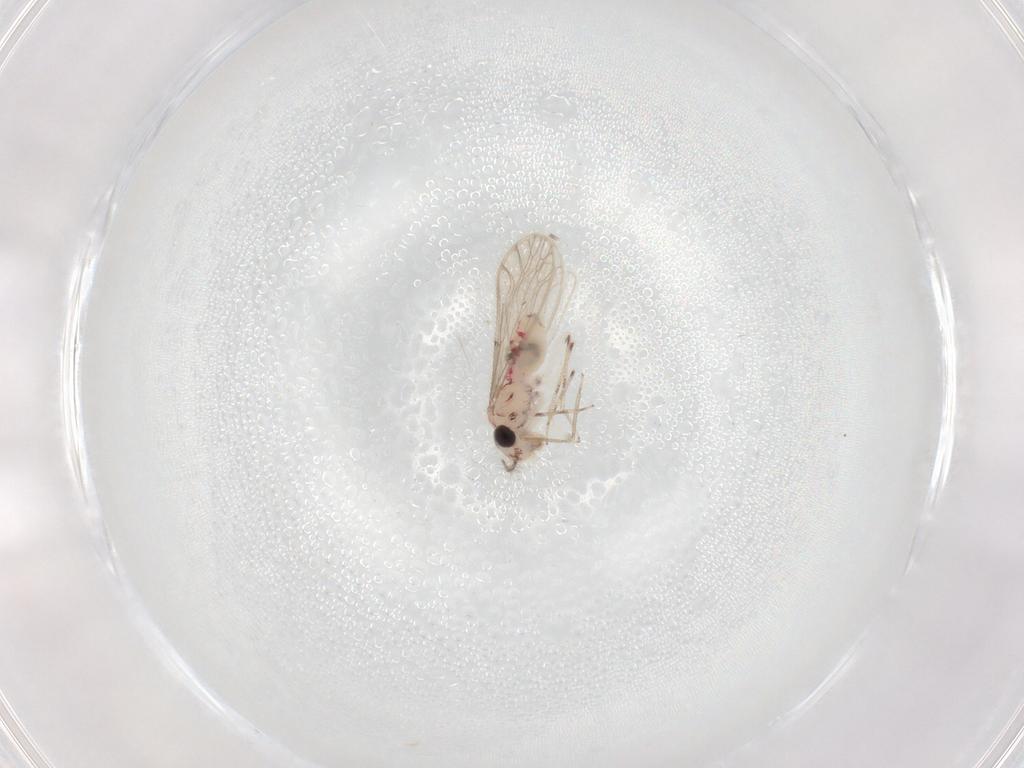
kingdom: Animalia
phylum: Arthropoda
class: Insecta
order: Psocodea
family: Caeciliusidae
